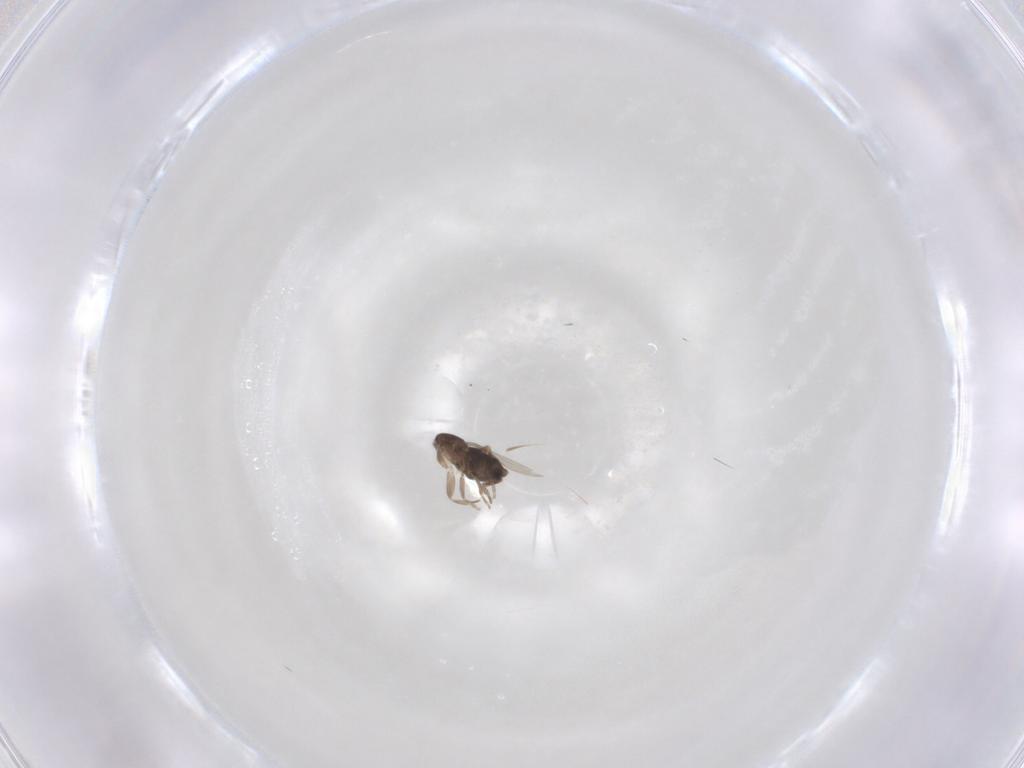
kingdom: Animalia
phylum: Arthropoda
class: Insecta
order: Diptera
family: Phoridae
